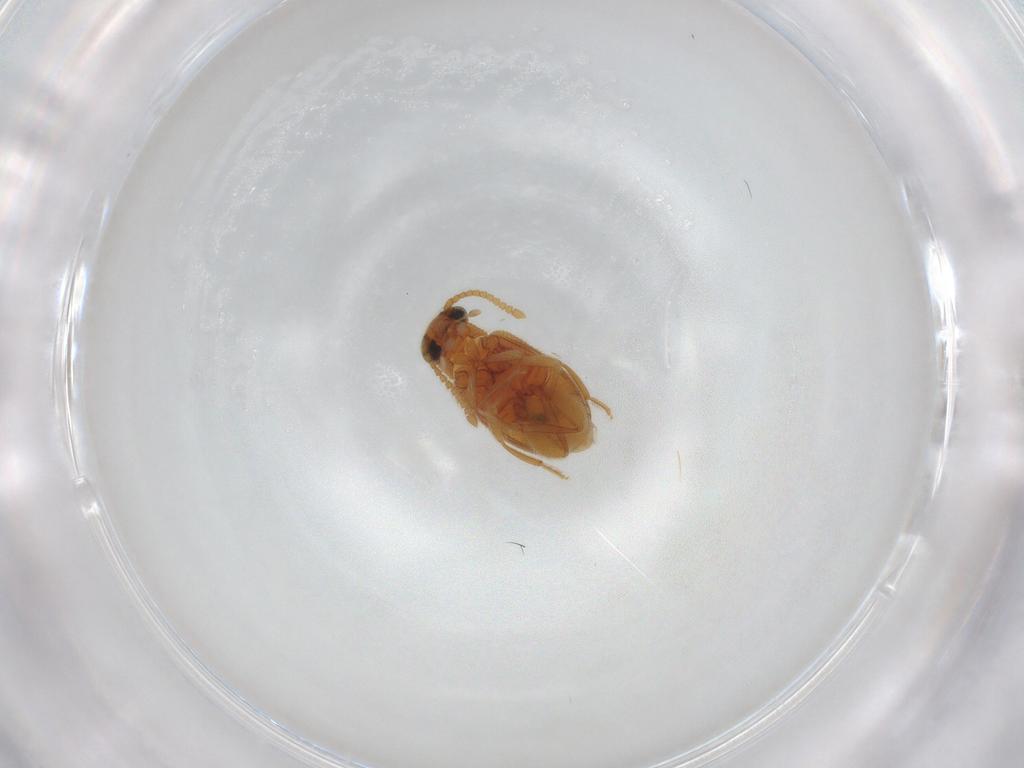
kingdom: Animalia
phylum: Arthropoda
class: Insecta
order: Coleoptera
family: Aderidae
